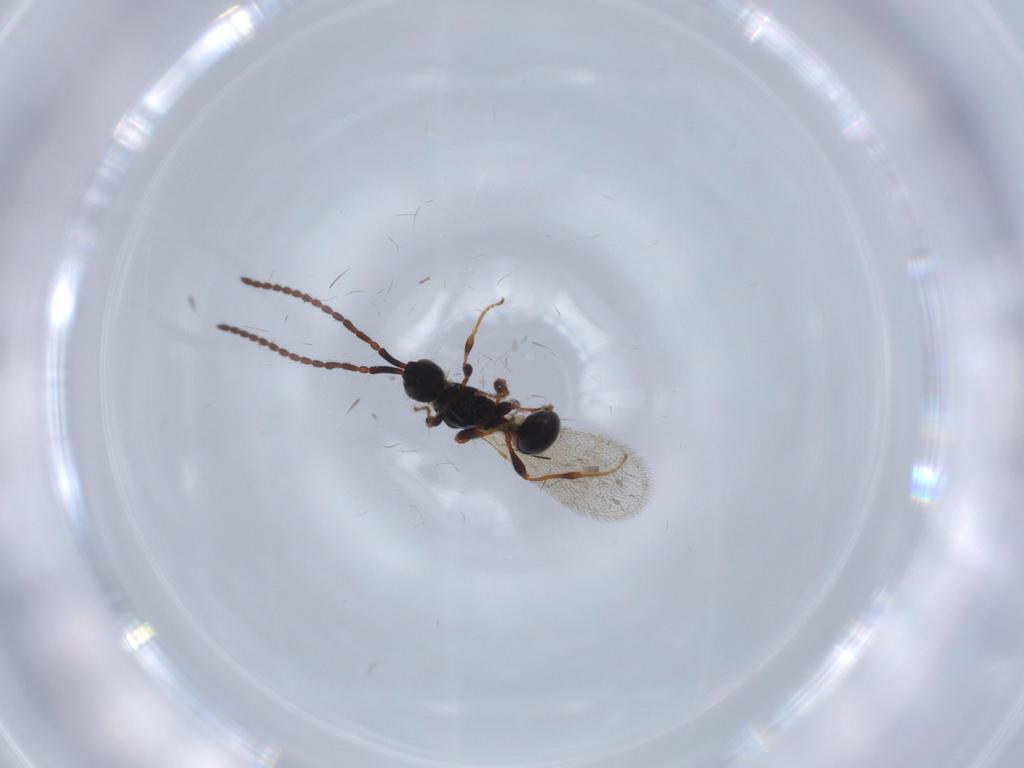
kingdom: Animalia
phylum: Arthropoda
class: Insecta
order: Hymenoptera
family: Diapriidae
